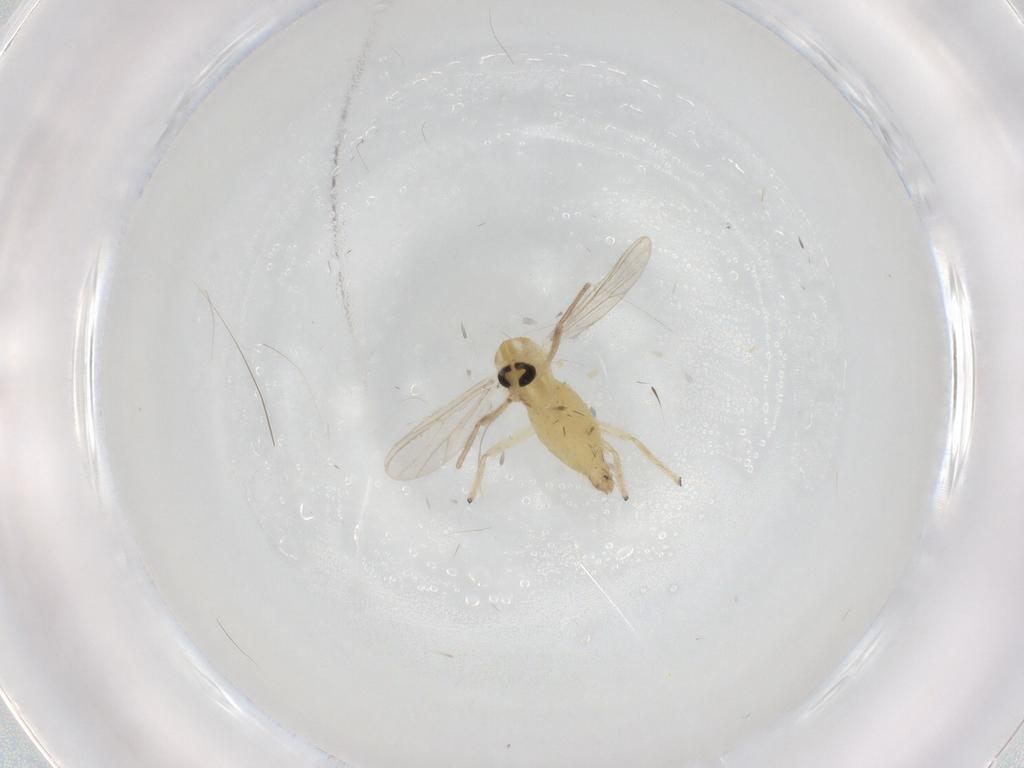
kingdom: Animalia
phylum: Arthropoda
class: Insecta
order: Diptera
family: Chironomidae
